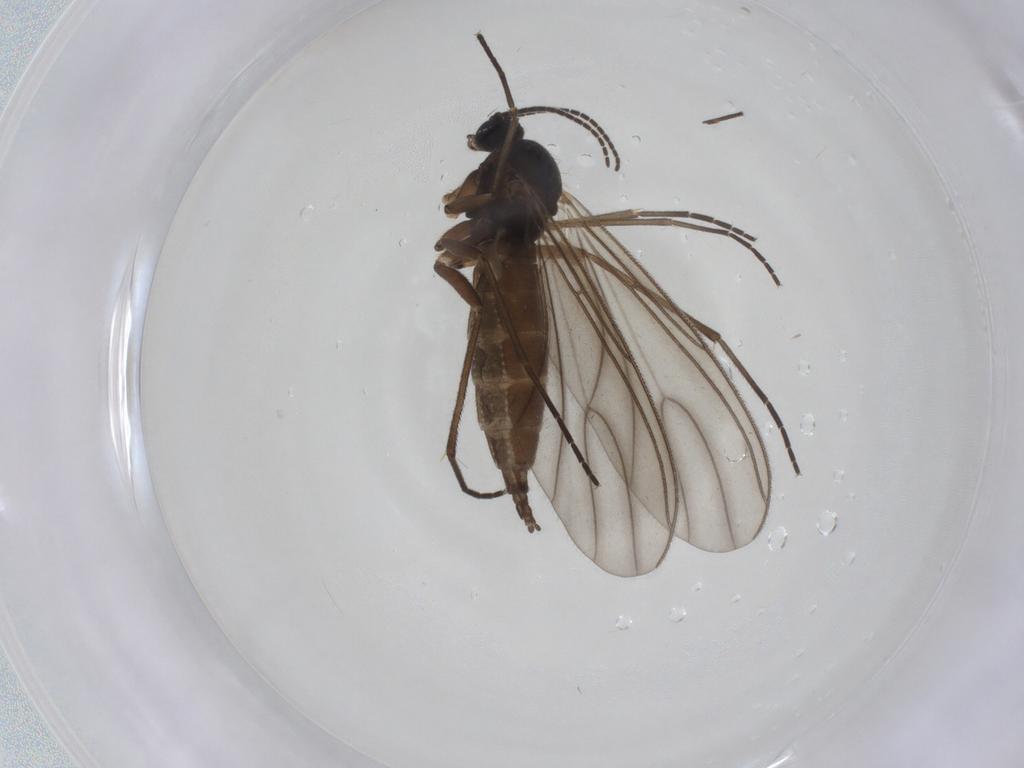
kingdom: Animalia
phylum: Arthropoda
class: Insecta
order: Diptera
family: Sciaridae
